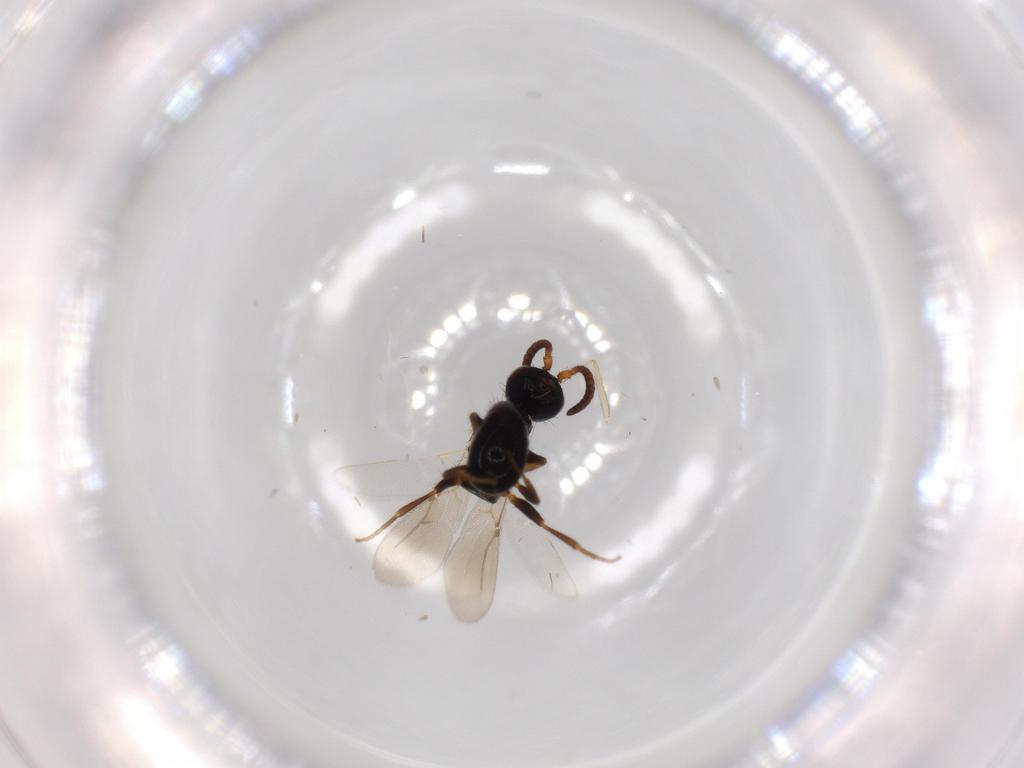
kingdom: Animalia
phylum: Arthropoda
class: Insecta
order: Hymenoptera
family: Bethylidae
